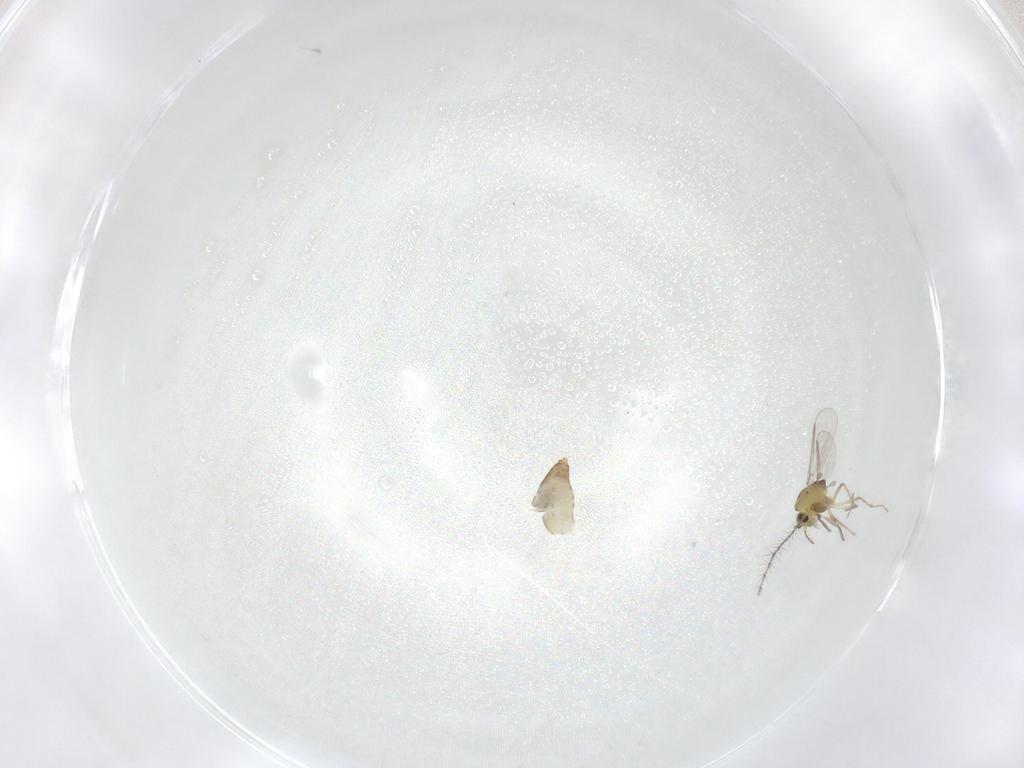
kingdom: Animalia
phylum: Arthropoda
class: Insecta
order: Diptera
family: Chironomidae
